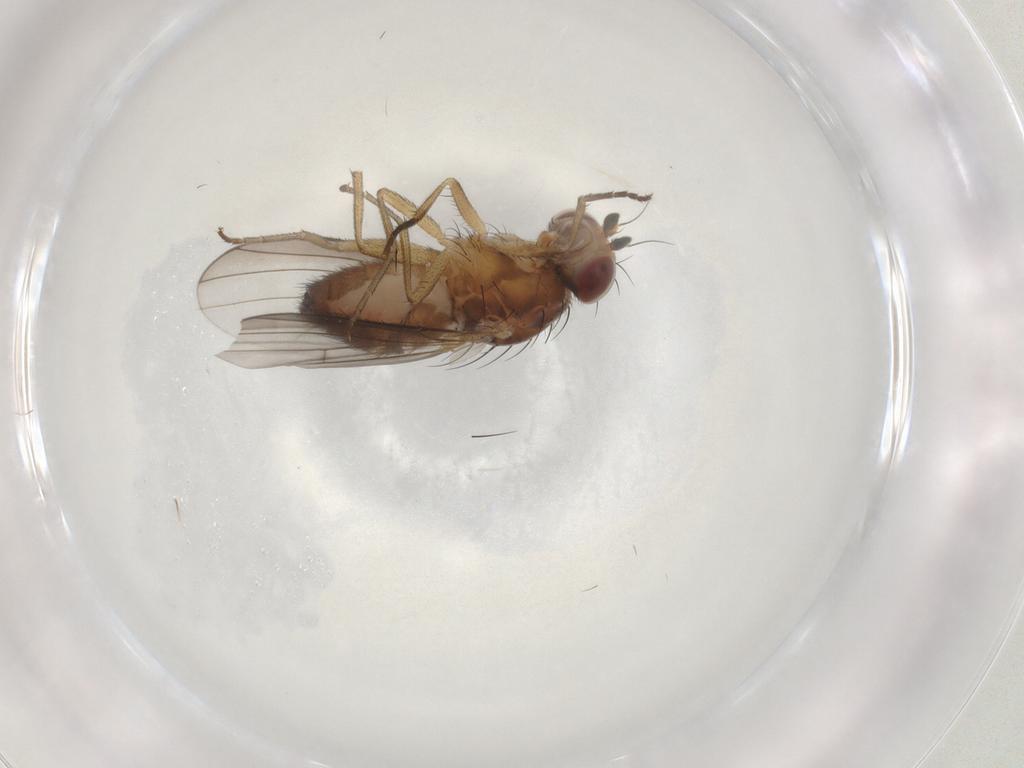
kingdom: Animalia
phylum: Arthropoda
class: Insecta
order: Diptera
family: Heleomyzidae
